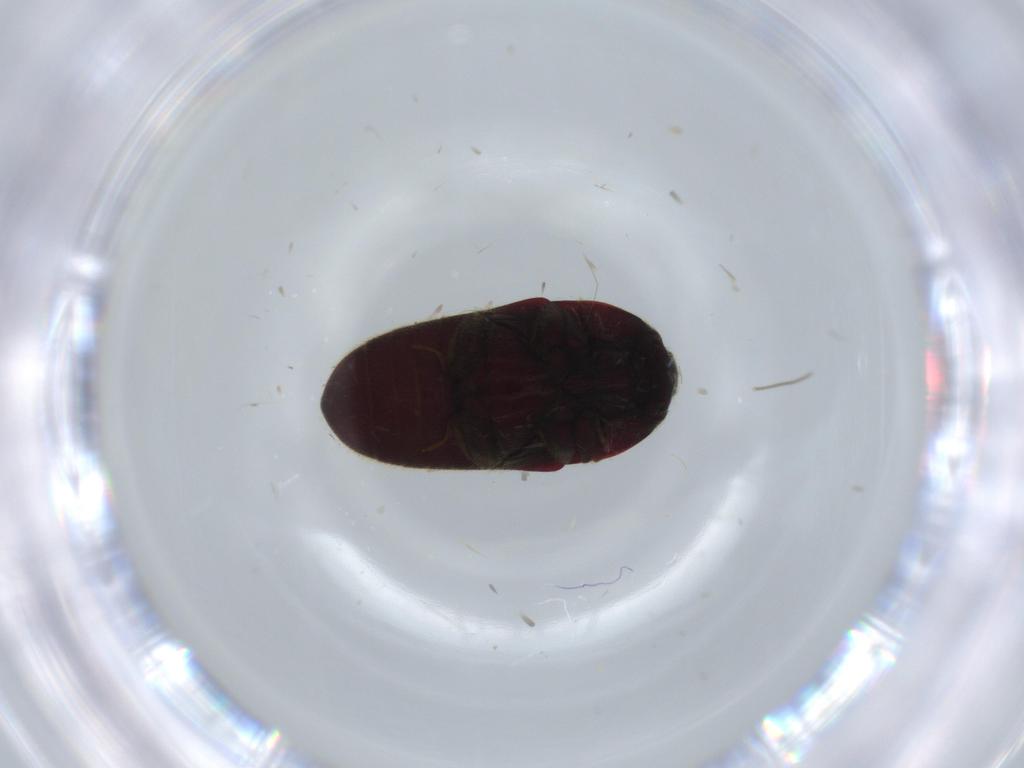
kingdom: Animalia
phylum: Arthropoda
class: Insecta
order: Coleoptera
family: Throscidae
